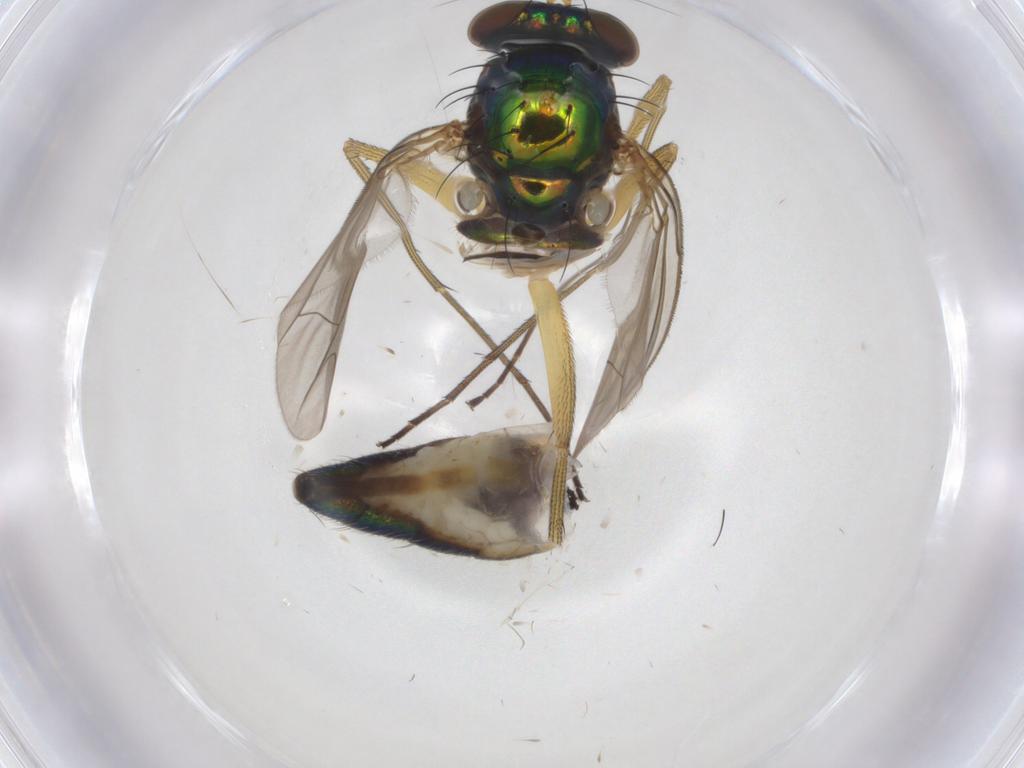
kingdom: Animalia
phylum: Arthropoda
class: Insecta
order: Diptera
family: Dolichopodidae
